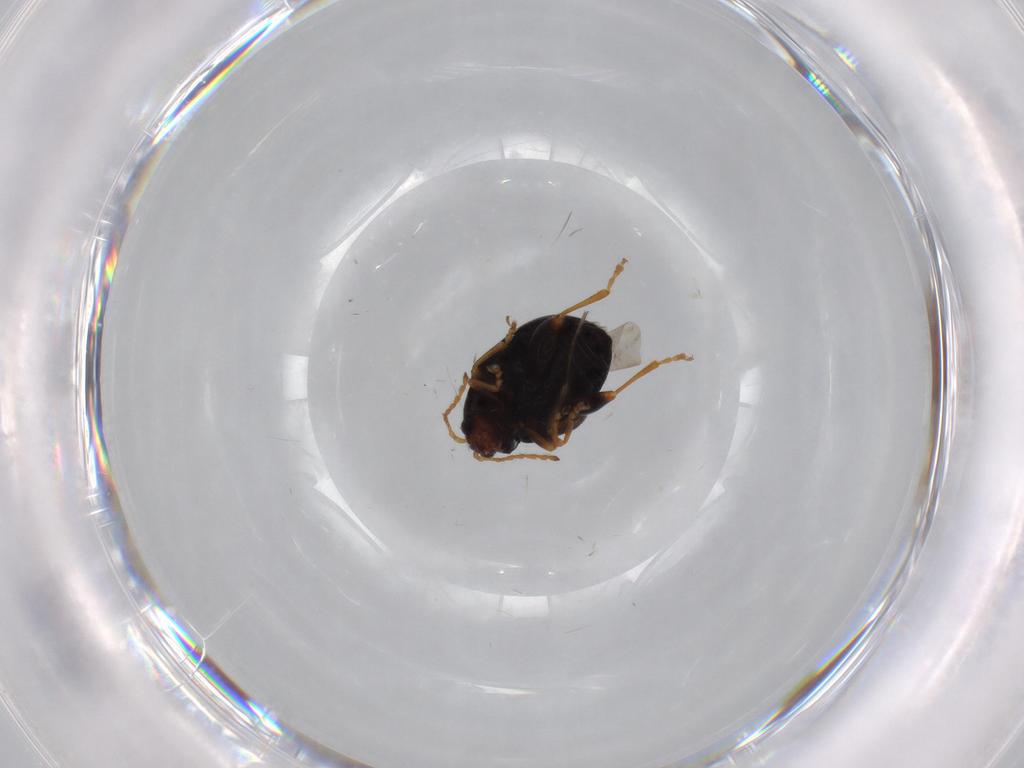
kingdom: Animalia
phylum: Arthropoda
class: Insecta
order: Coleoptera
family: Chrysomelidae
